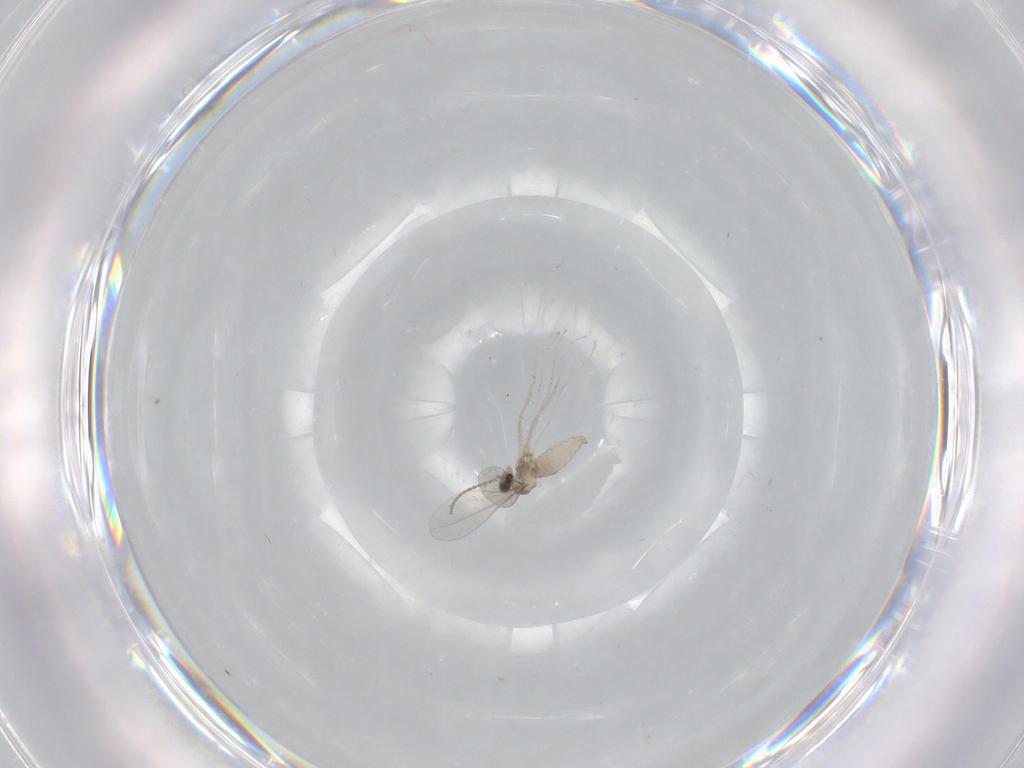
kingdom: Animalia
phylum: Arthropoda
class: Insecta
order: Diptera
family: Cecidomyiidae
